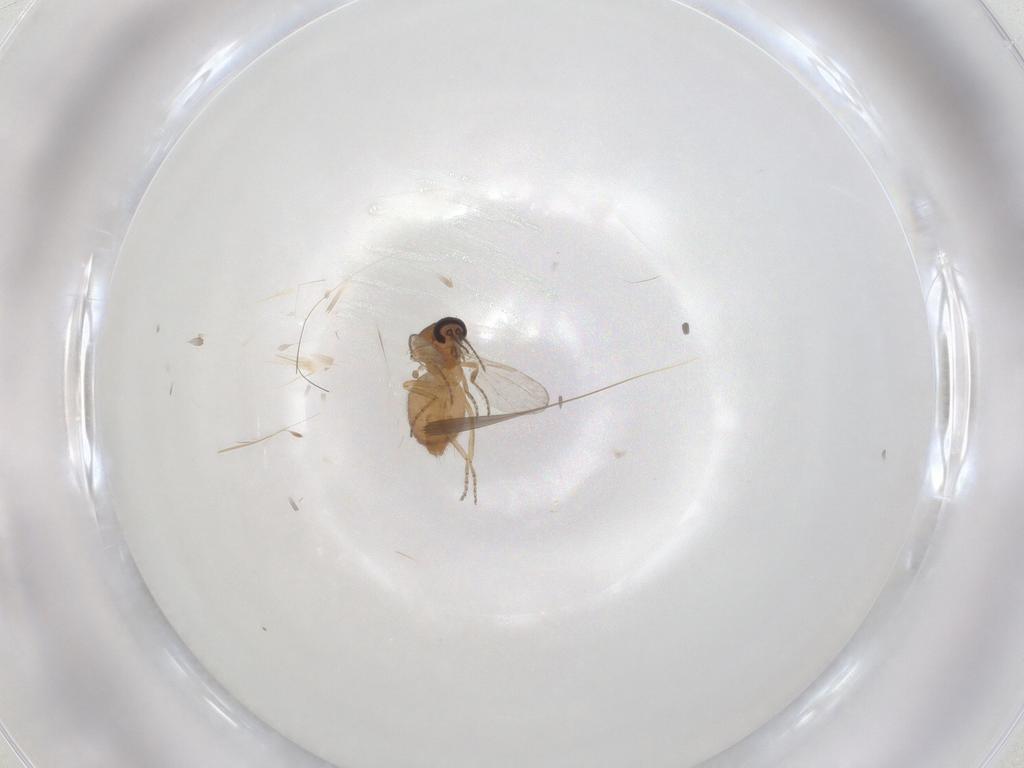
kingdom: Animalia
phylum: Arthropoda
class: Insecta
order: Diptera
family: Ceratopogonidae
